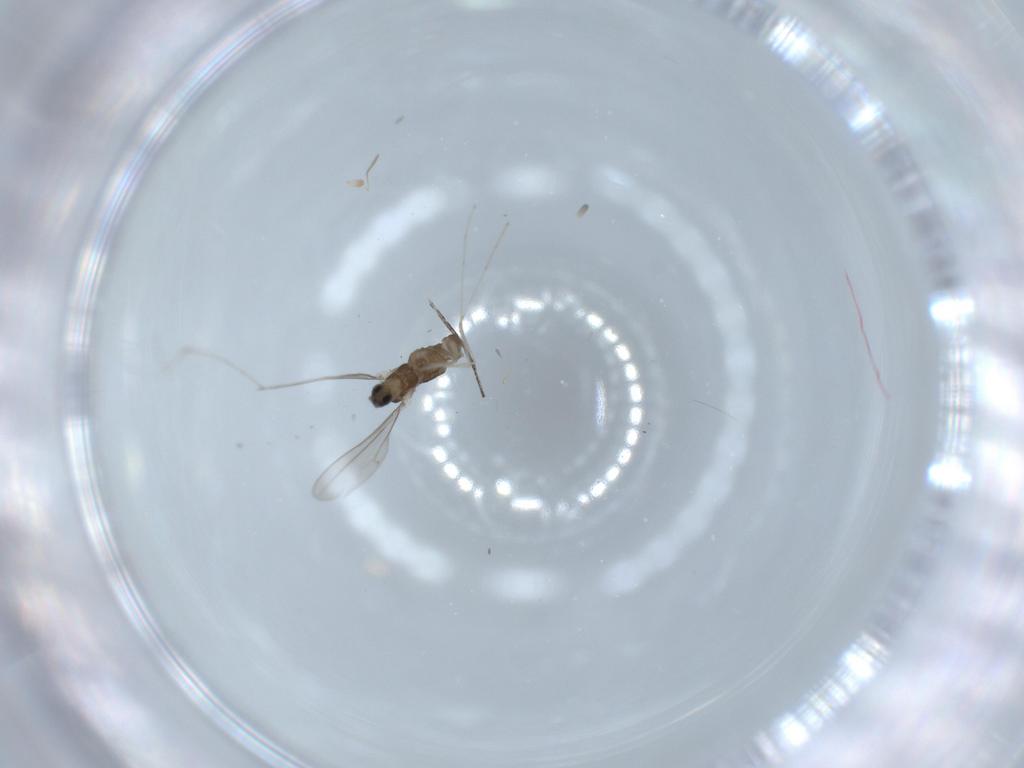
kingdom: Animalia
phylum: Arthropoda
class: Insecta
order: Diptera
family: Cecidomyiidae
